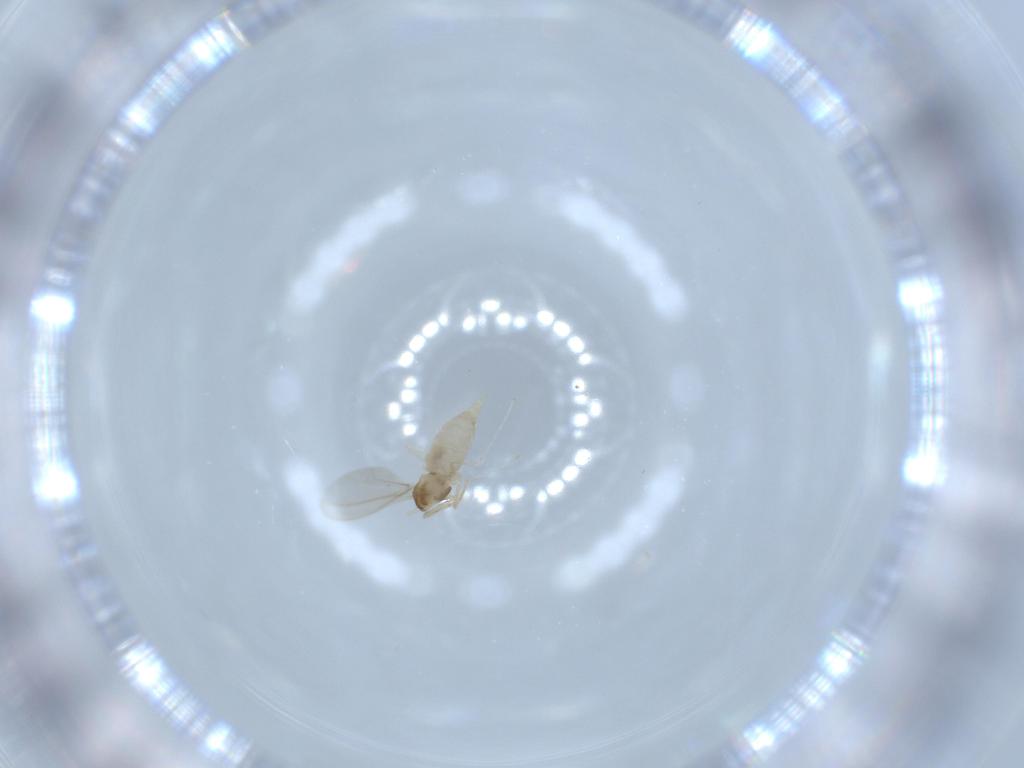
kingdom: Animalia
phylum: Arthropoda
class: Insecta
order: Diptera
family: Cecidomyiidae
